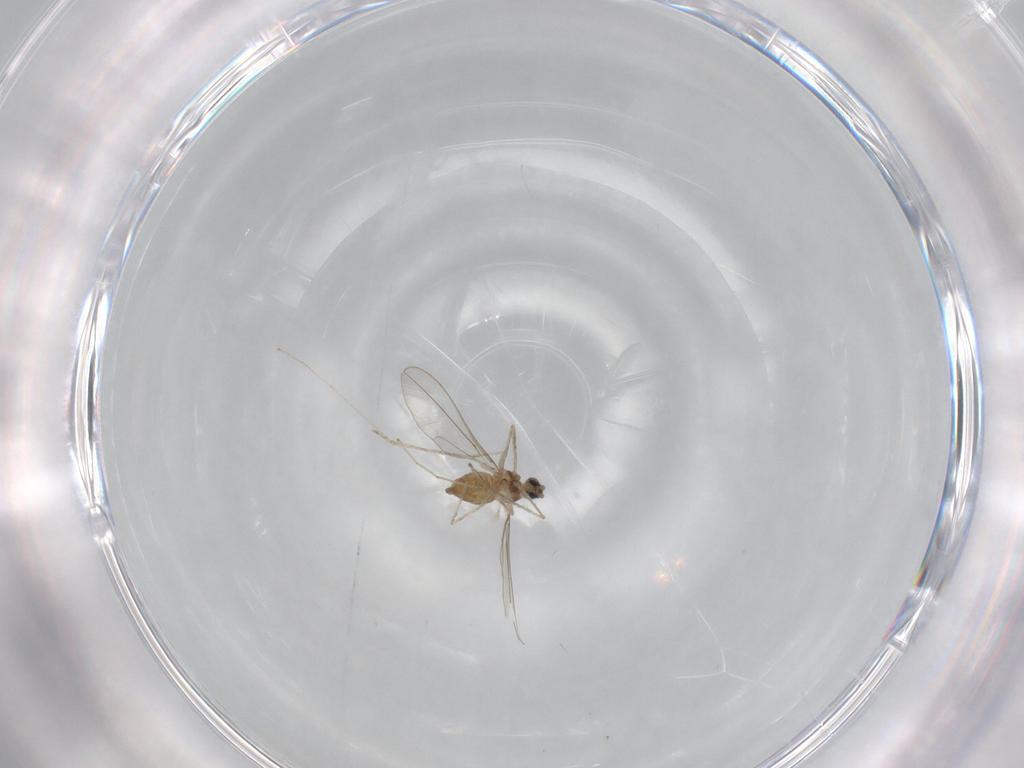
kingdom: Animalia
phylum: Arthropoda
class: Insecta
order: Diptera
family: Cecidomyiidae
